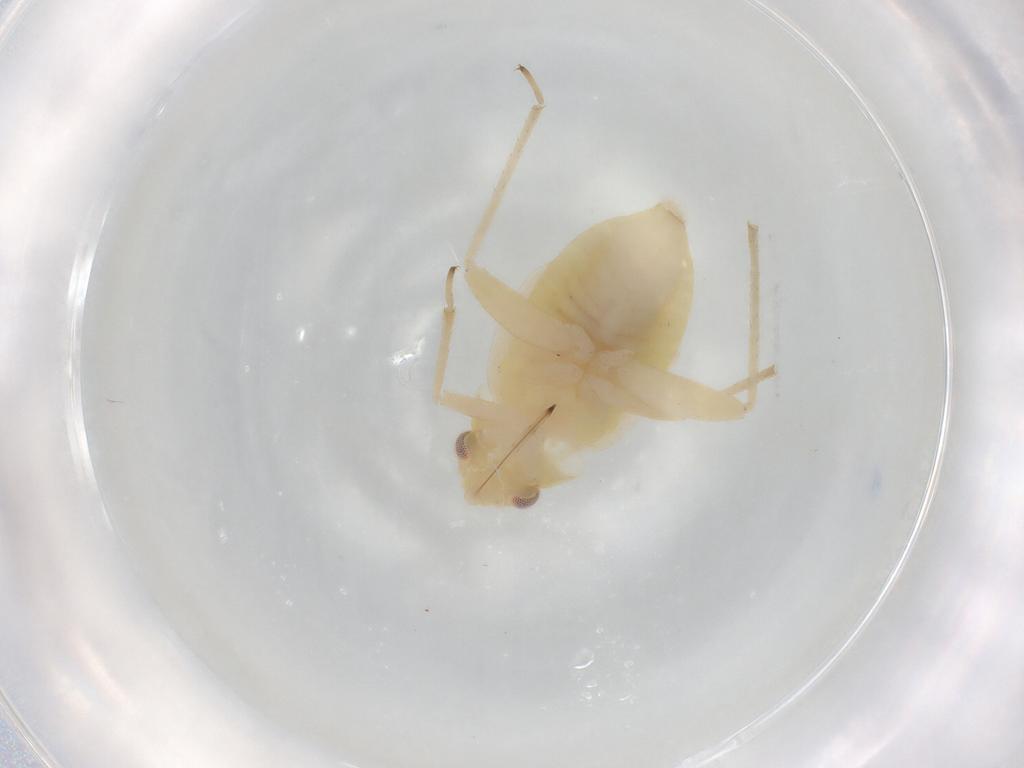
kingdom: Animalia
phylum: Arthropoda
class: Insecta
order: Hemiptera
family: Miridae
